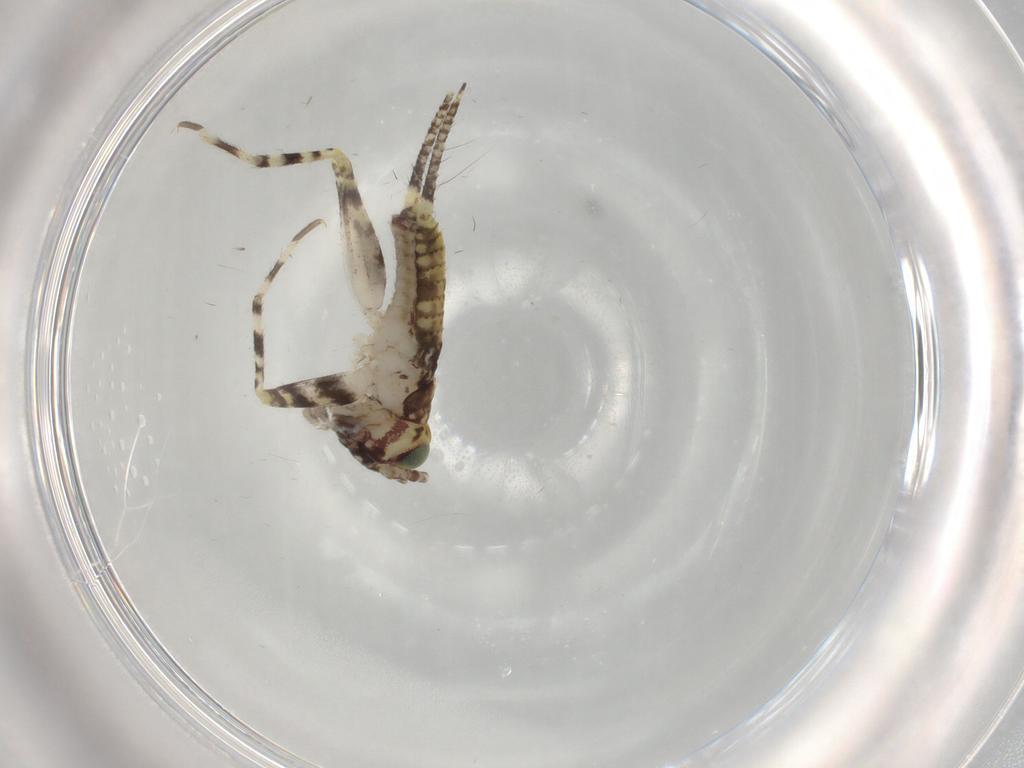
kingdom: Animalia
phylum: Arthropoda
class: Insecta
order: Orthoptera
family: Gryllidae
